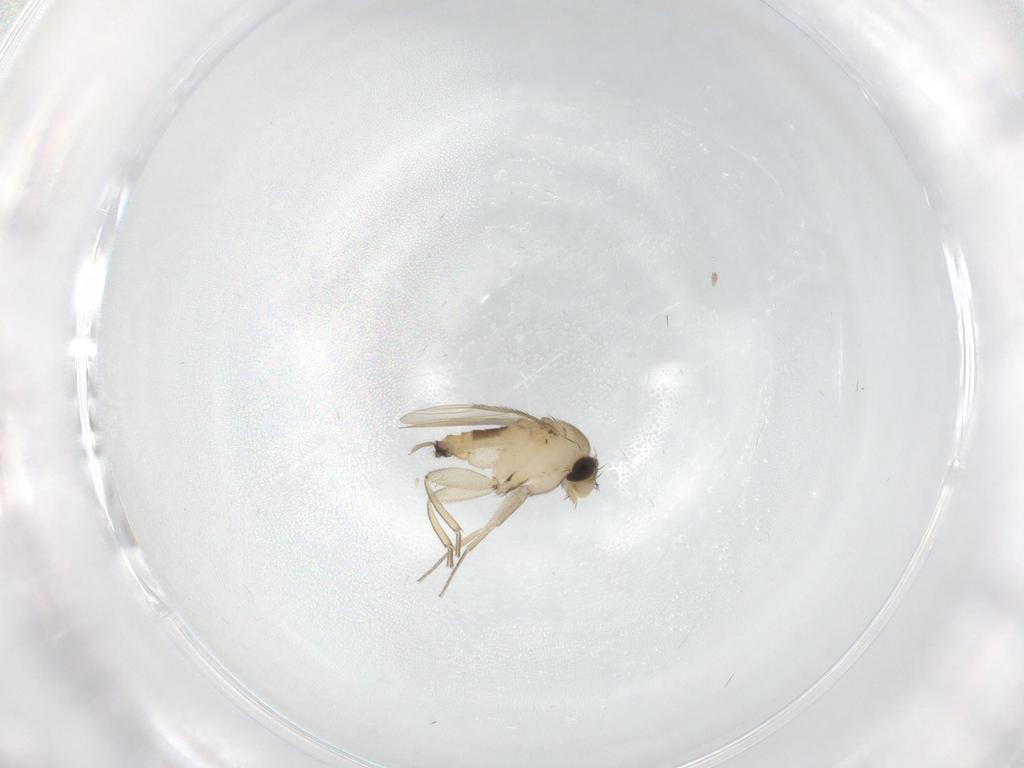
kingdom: Animalia
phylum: Arthropoda
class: Insecta
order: Diptera
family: Phoridae
